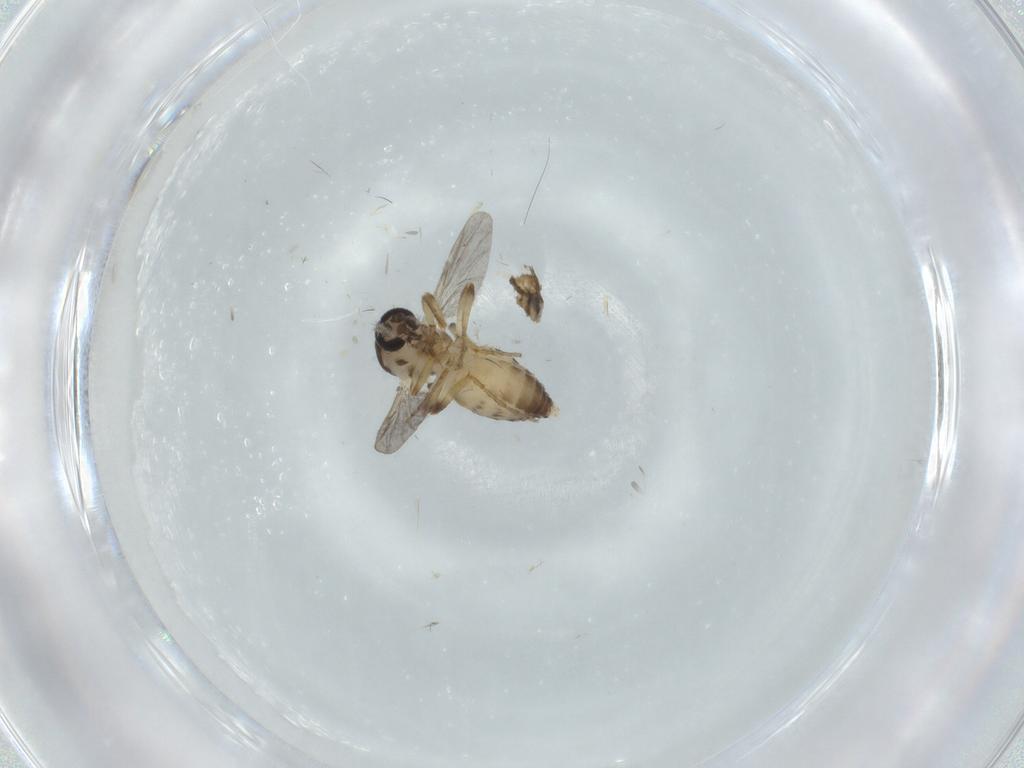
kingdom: Animalia
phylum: Arthropoda
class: Insecta
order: Diptera
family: Ceratopogonidae
